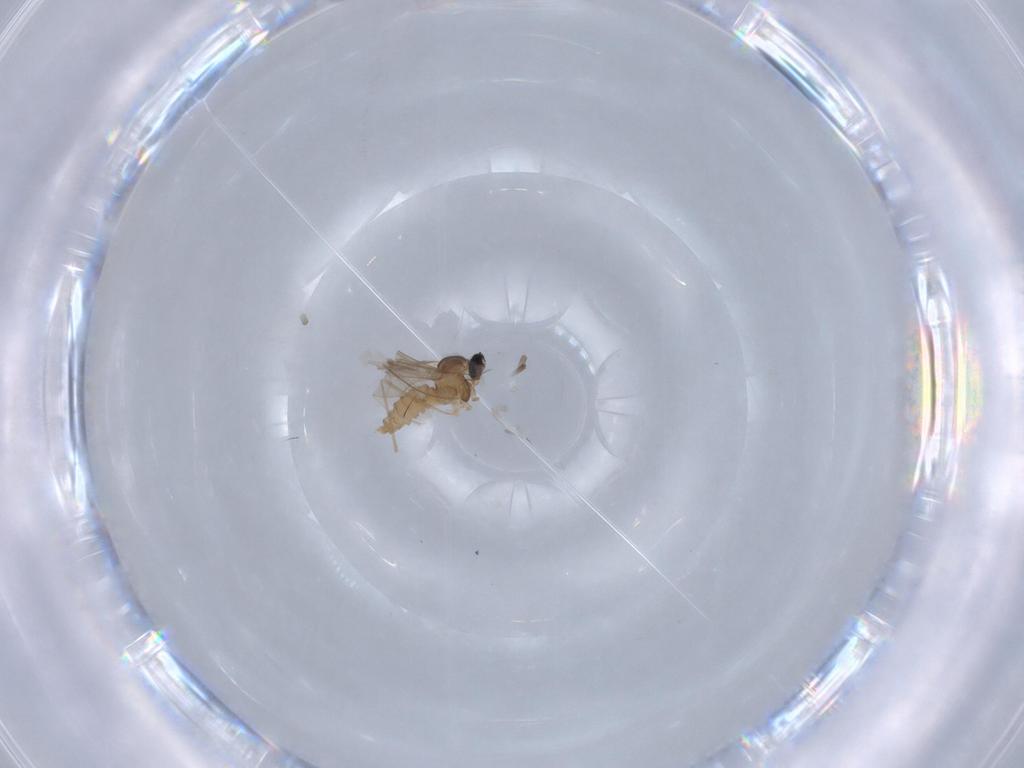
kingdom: Animalia
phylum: Arthropoda
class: Insecta
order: Diptera
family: Cecidomyiidae
